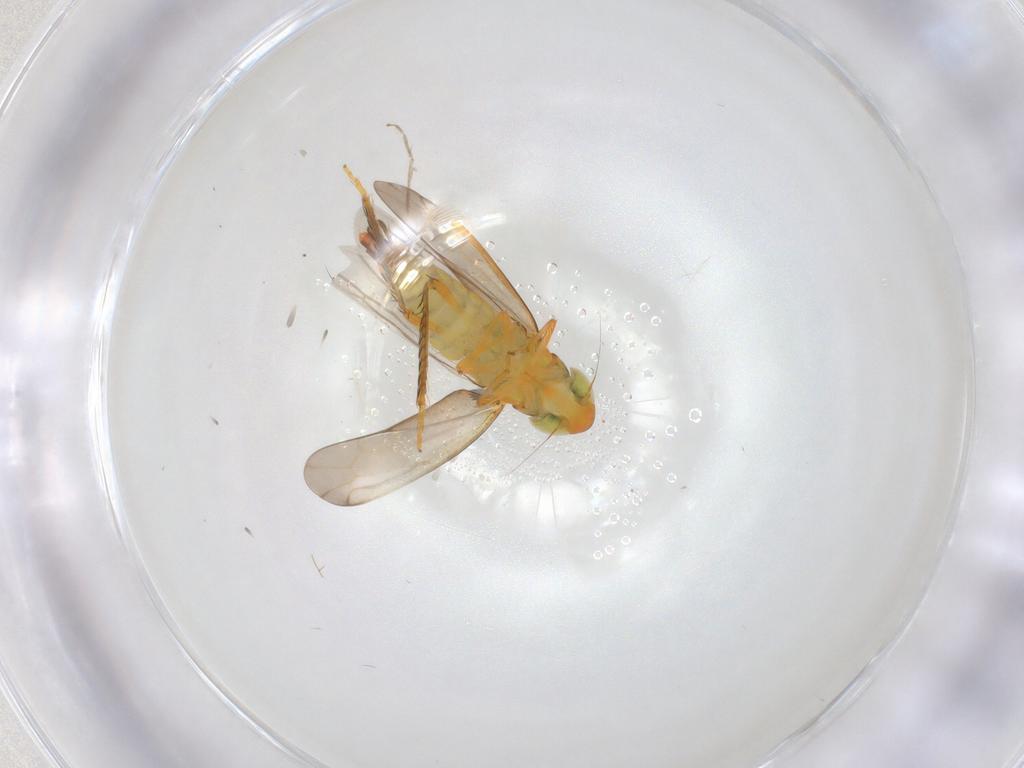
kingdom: Animalia
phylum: Arthropoda
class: Insecta
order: Hemiptera
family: Cicadellidae
